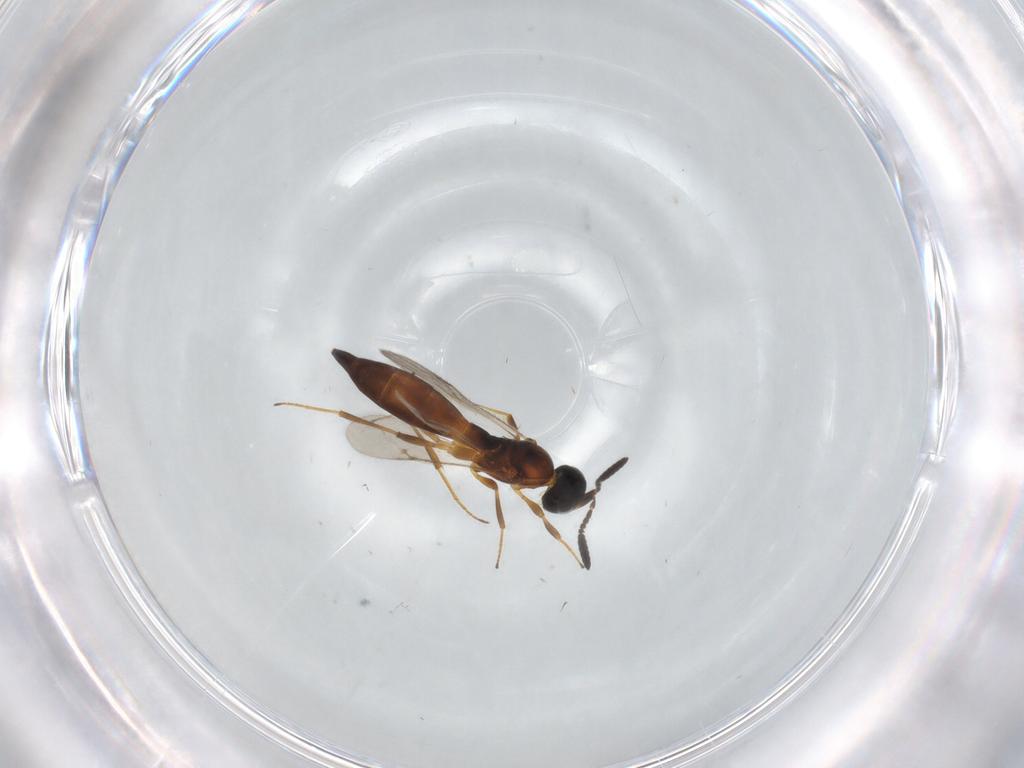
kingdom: Animalia
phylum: Arthropoda
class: Insecta
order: Hymenoptera
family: Scelionidae
